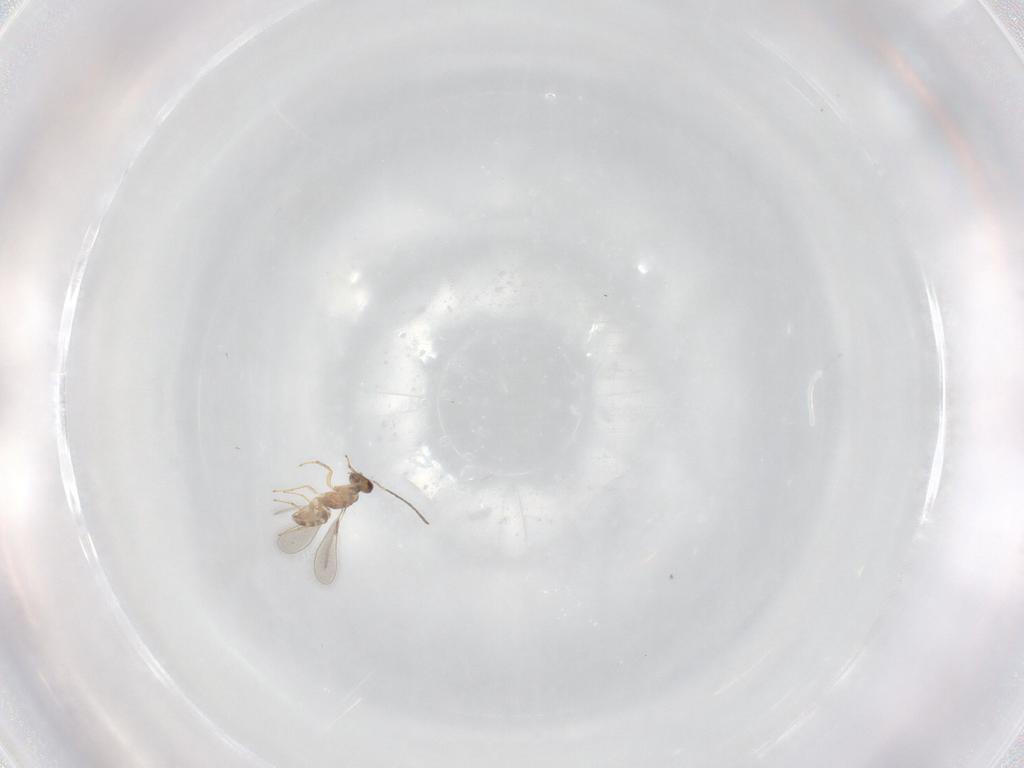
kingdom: Animalia
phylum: Arthropoda
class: Insecta
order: Hymenoptera
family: Mymaridae
